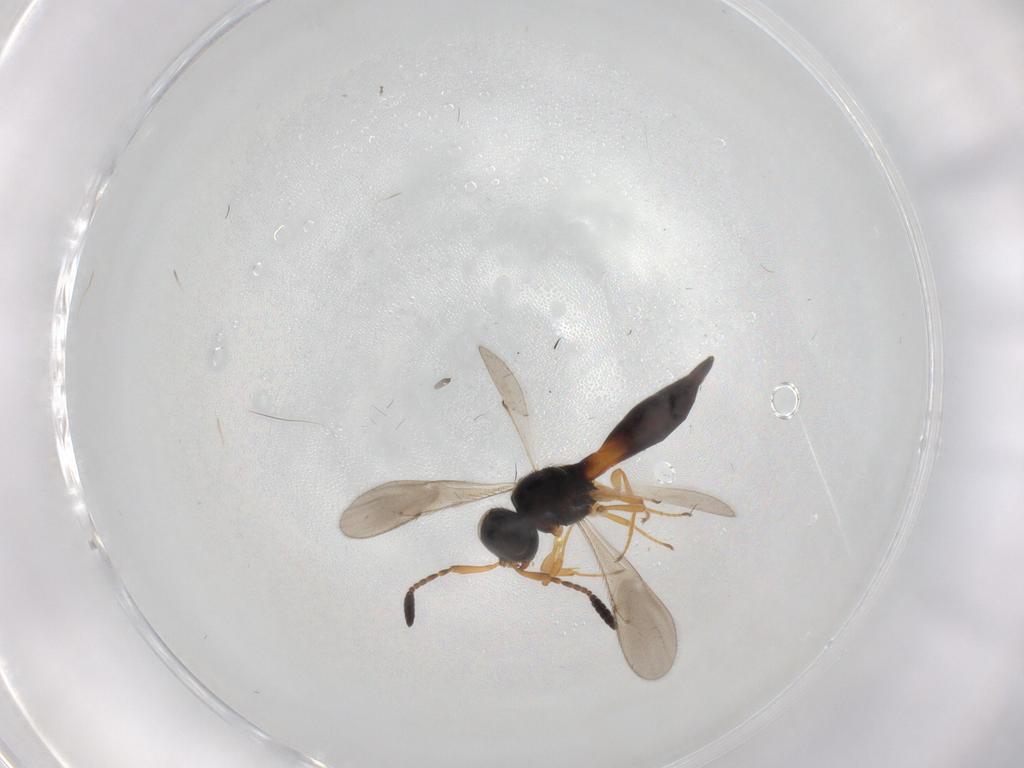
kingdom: Animalia
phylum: Arthropoda
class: Insecta
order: Hymenoptera
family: Scelionidae
